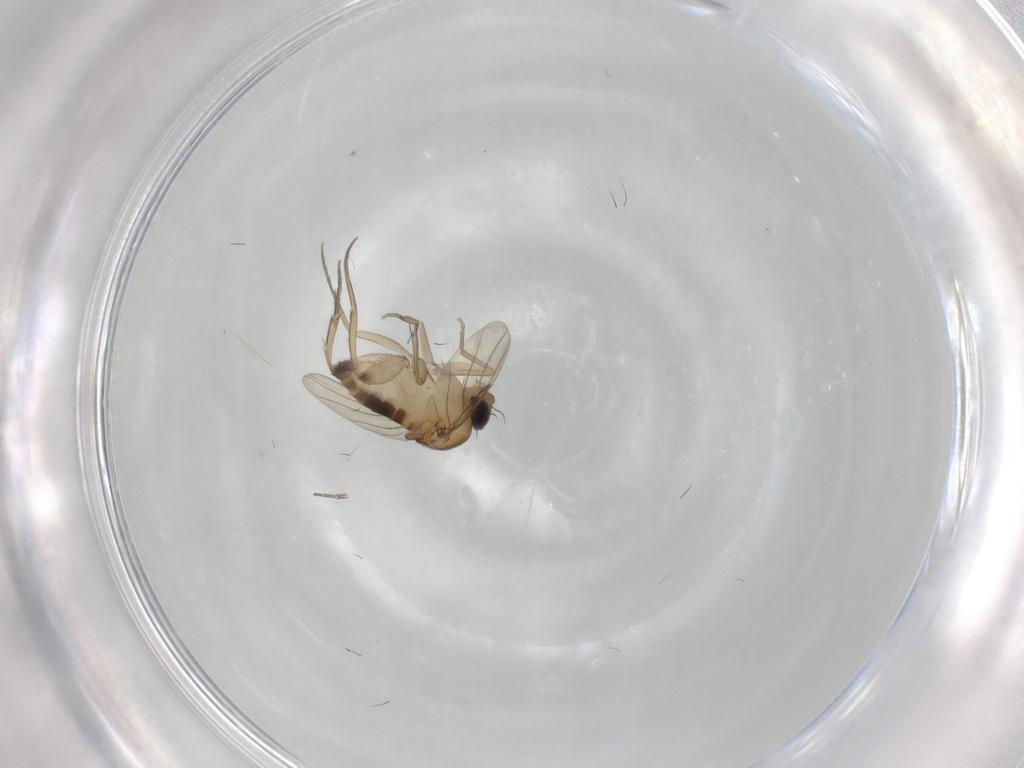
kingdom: Animalia
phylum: Arthropoda
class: Insecta
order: Diptera
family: Phoridae
